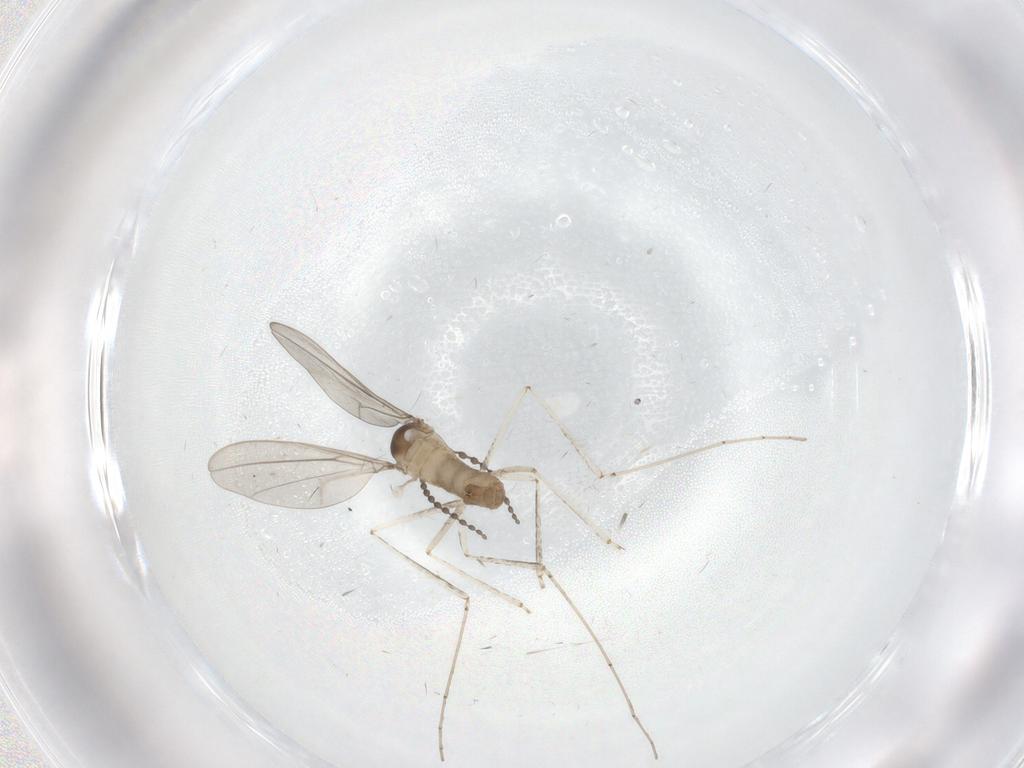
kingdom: Animalia
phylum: Arthropoda
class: Insecta
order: Diptera
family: Cecidomyiidae
